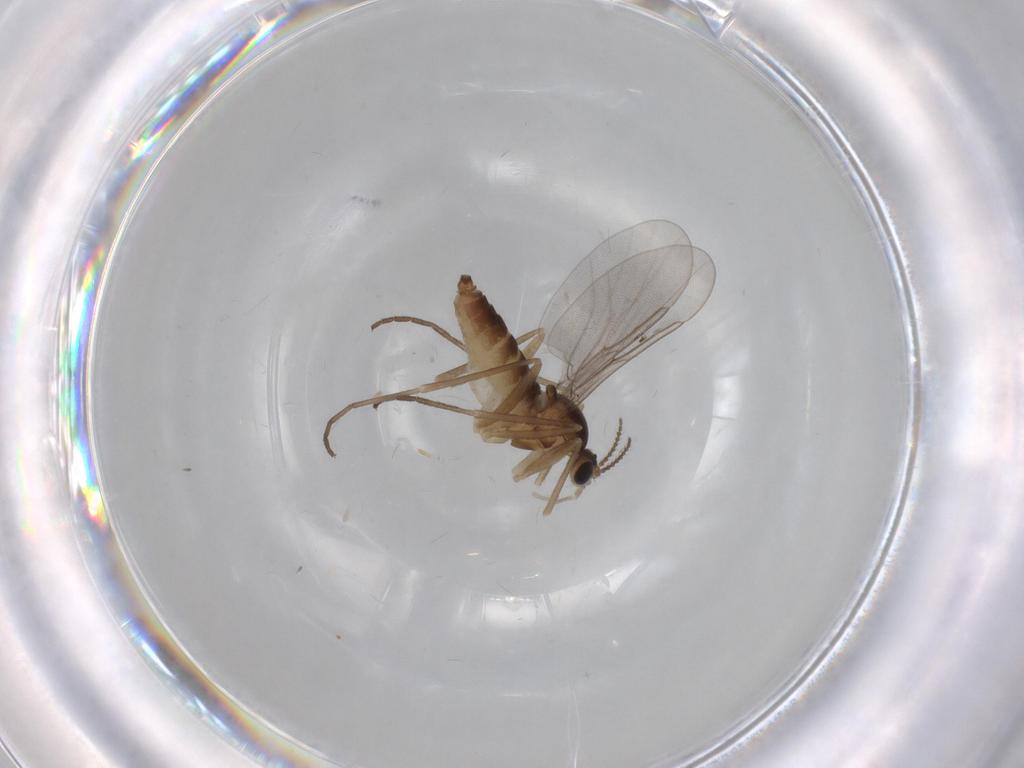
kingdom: Animalia
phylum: Arthropoda
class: Insecta
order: Diptera
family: Cecidomyiidae
